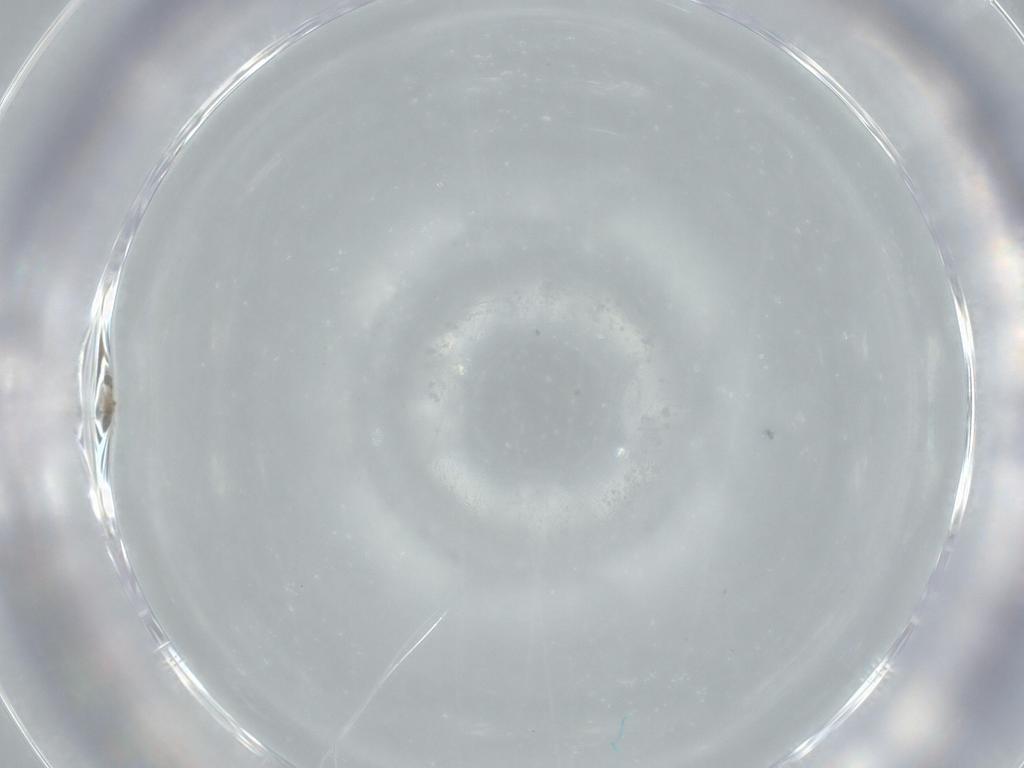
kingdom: Animalia
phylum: Arthropoda
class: Insecta
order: Hymenoptera
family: Trichogrammatidae
